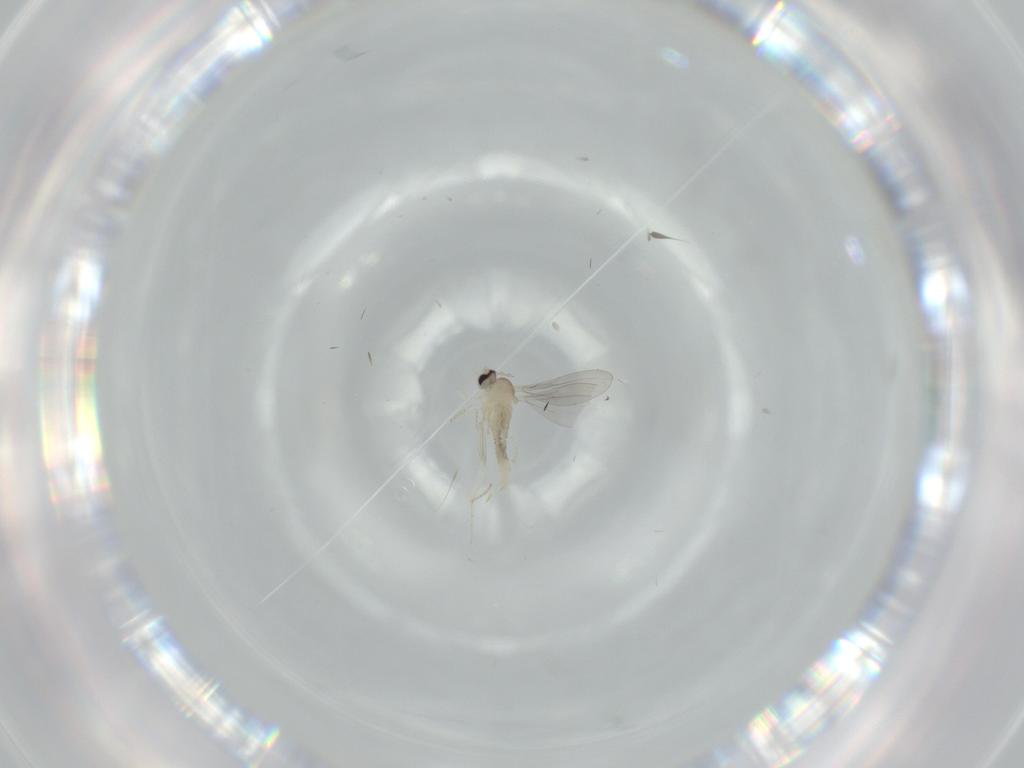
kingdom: Animalia
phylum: Arthropoda
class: Insecta
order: Diptera
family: Cecidomyiidae
